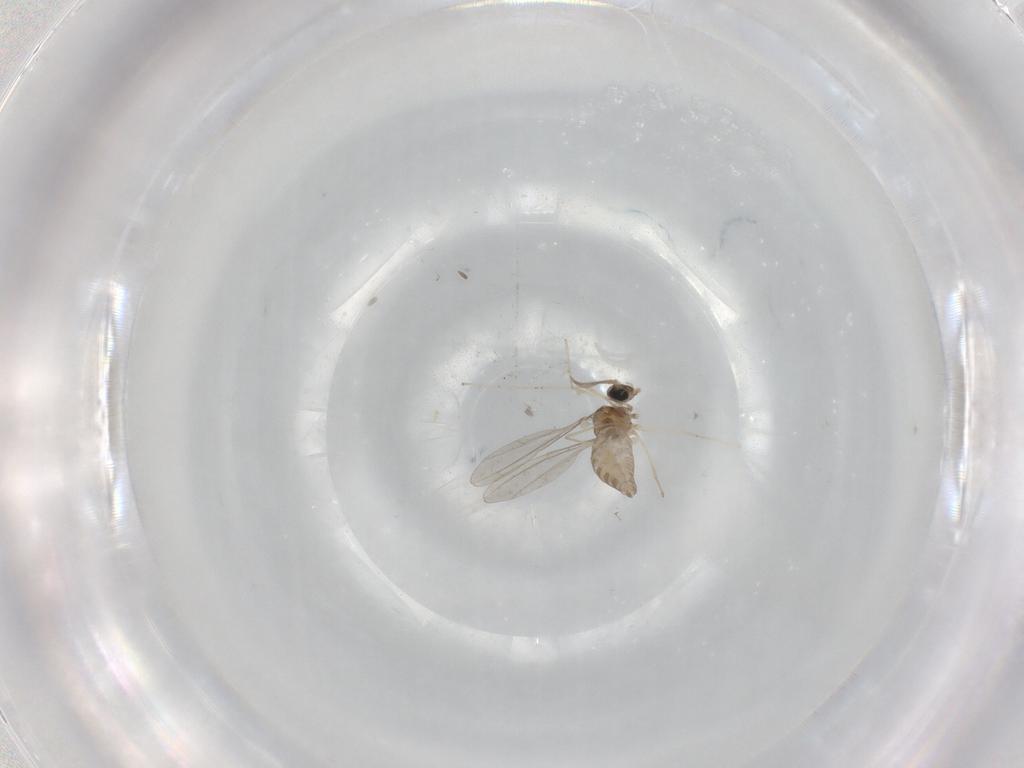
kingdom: Animalia
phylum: Arthropoda
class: Insecta
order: Diptera
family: Cecidomyiidae
